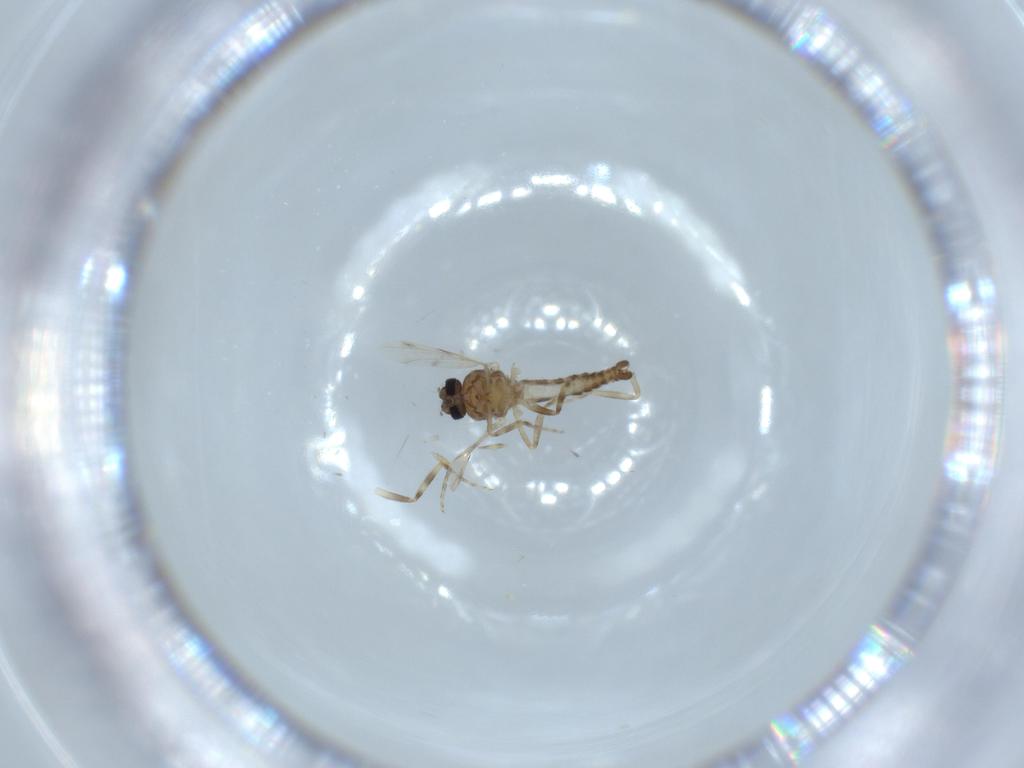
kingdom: Animalia
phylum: Arthropoda
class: Insecta
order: Diptera
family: Ceratopogonidae
